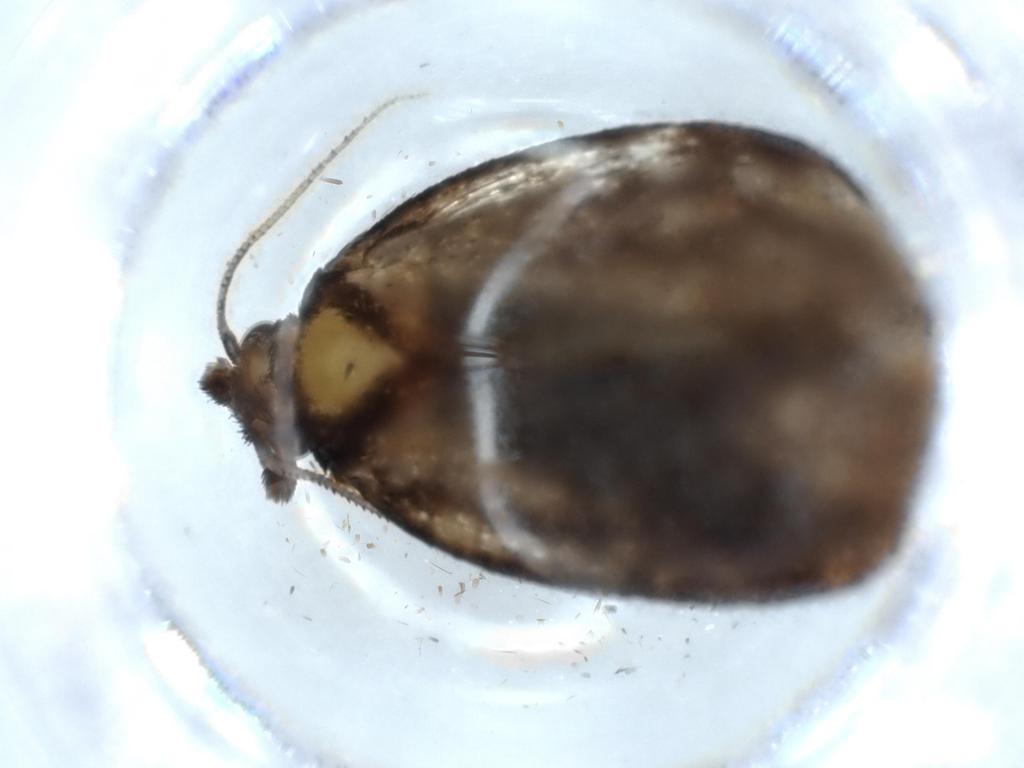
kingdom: Animalia
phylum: Arthropoda
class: Insecta
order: Lepidoptera
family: Tineidae
